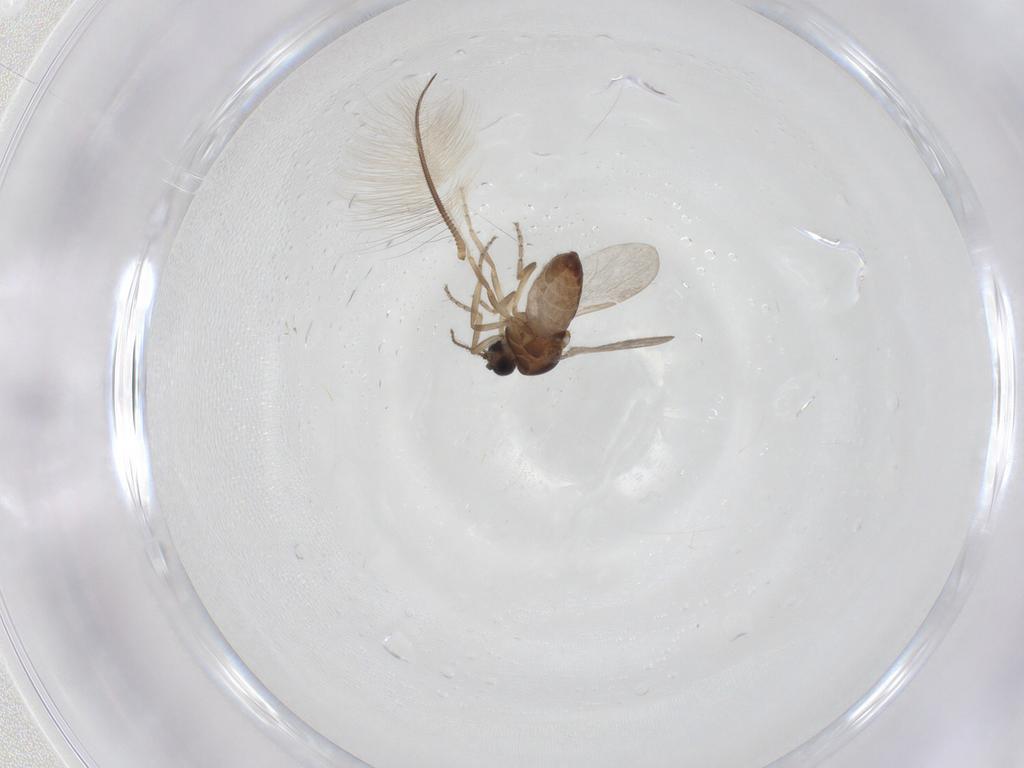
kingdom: Animalia
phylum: Arthropoda
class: Insecta
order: Diptera
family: Ceratopogonidae
